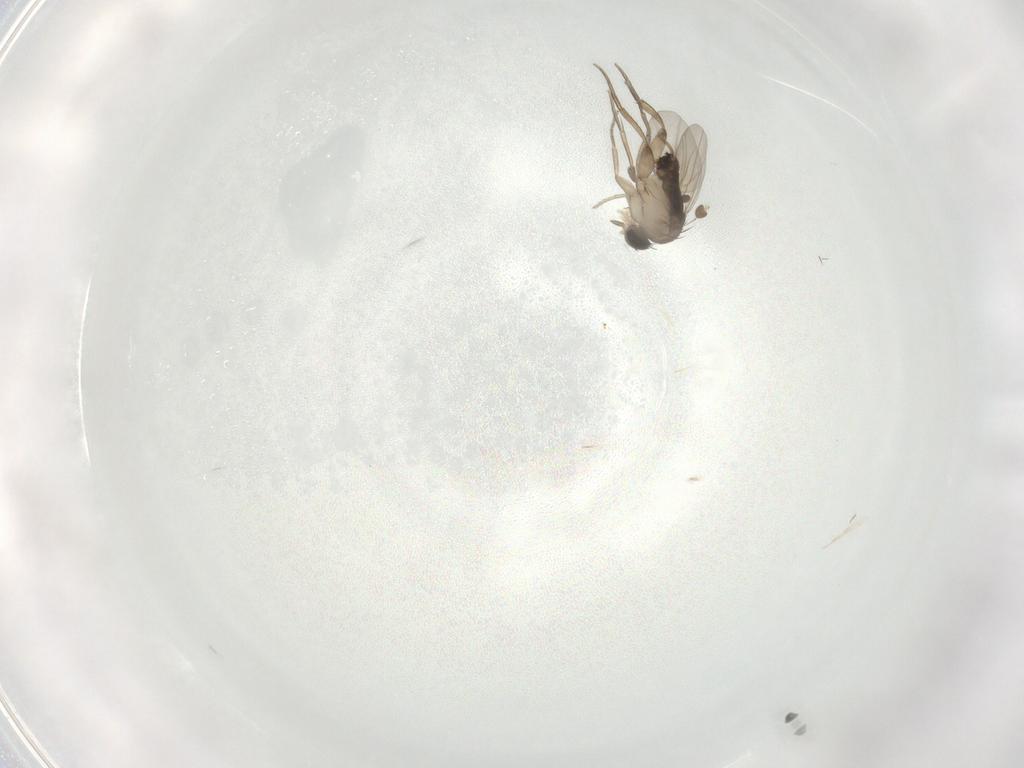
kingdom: Animalia
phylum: Arthropoda
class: Insecta
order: Diptera
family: Phoridae
